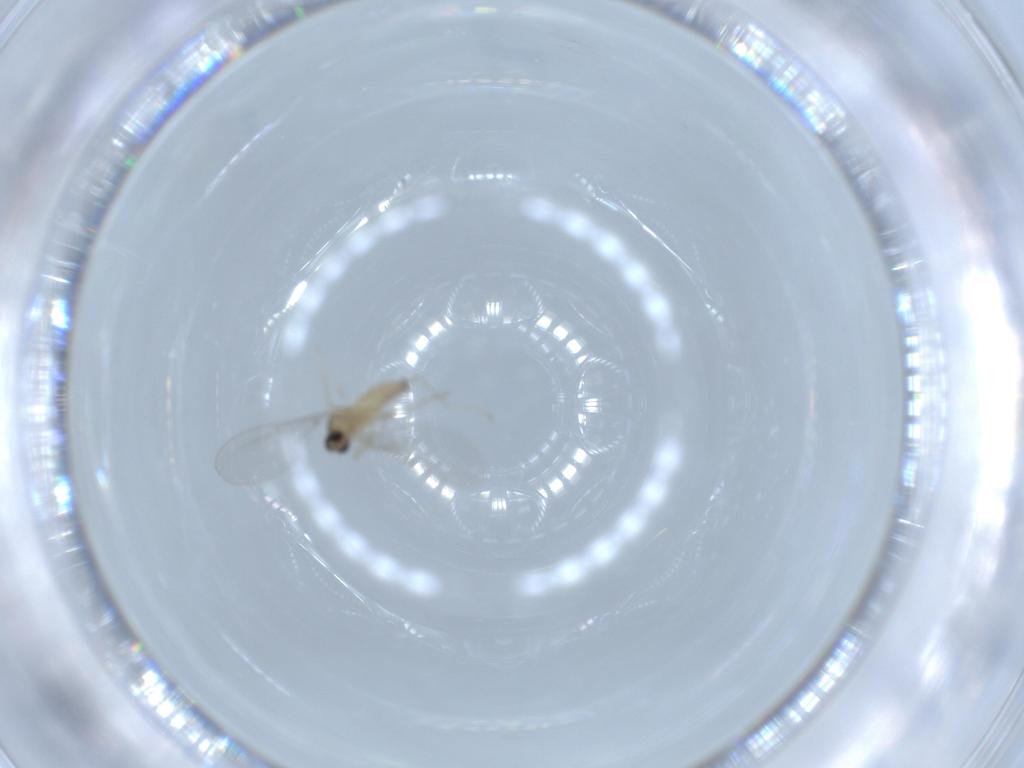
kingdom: Animalia
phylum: Arthropoda
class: Insecta
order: Diptera
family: Cecidomyiidae
